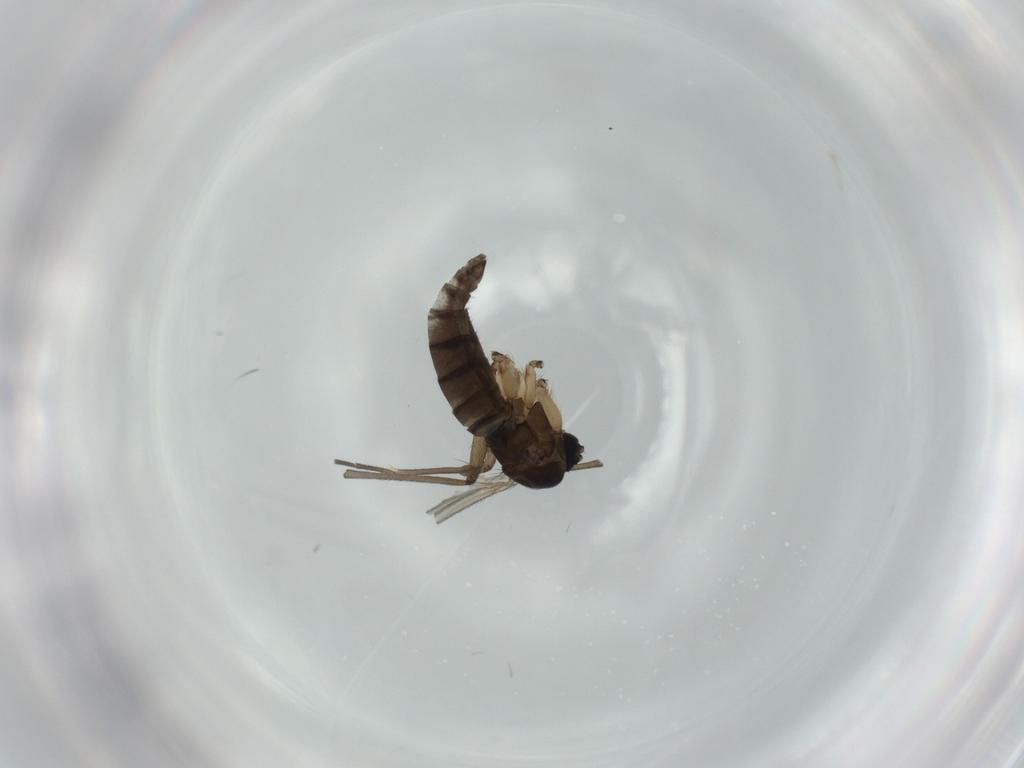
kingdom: Animalia
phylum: Arthropoda
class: Insecta
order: Diptera
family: Sciaridae
